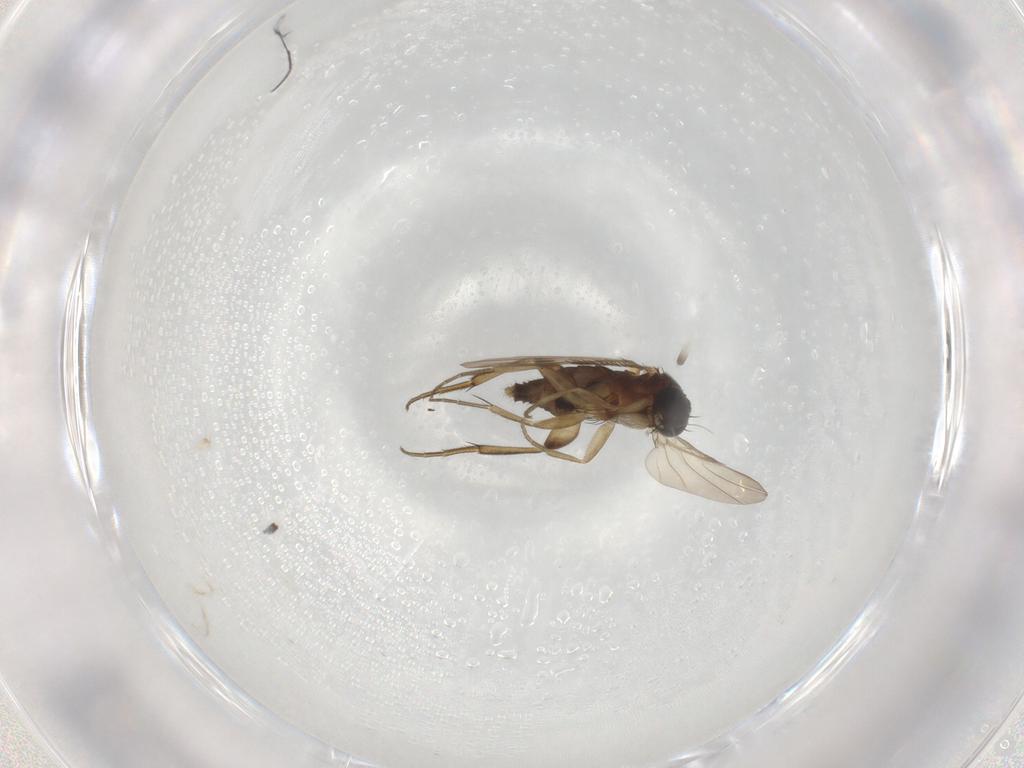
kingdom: Animalia
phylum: Arthropoda
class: Insecta
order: Diptera
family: Phoridae
